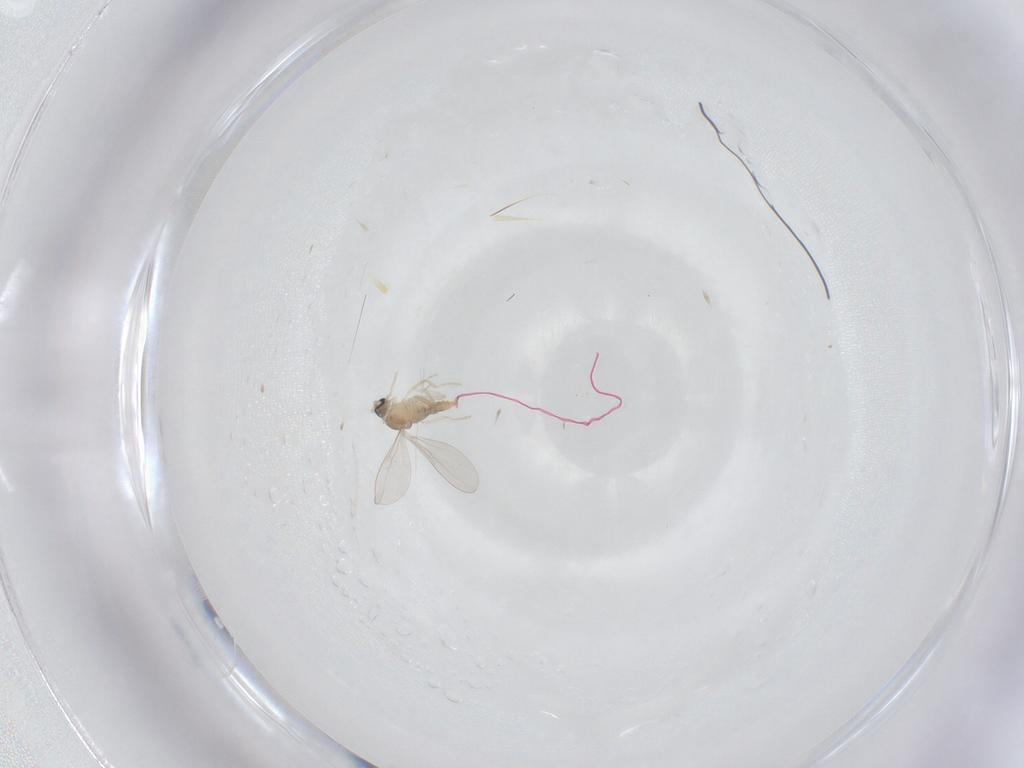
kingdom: Animalia
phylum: Arthropoda
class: Insecta
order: Diptera
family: Cecidomyiidae
